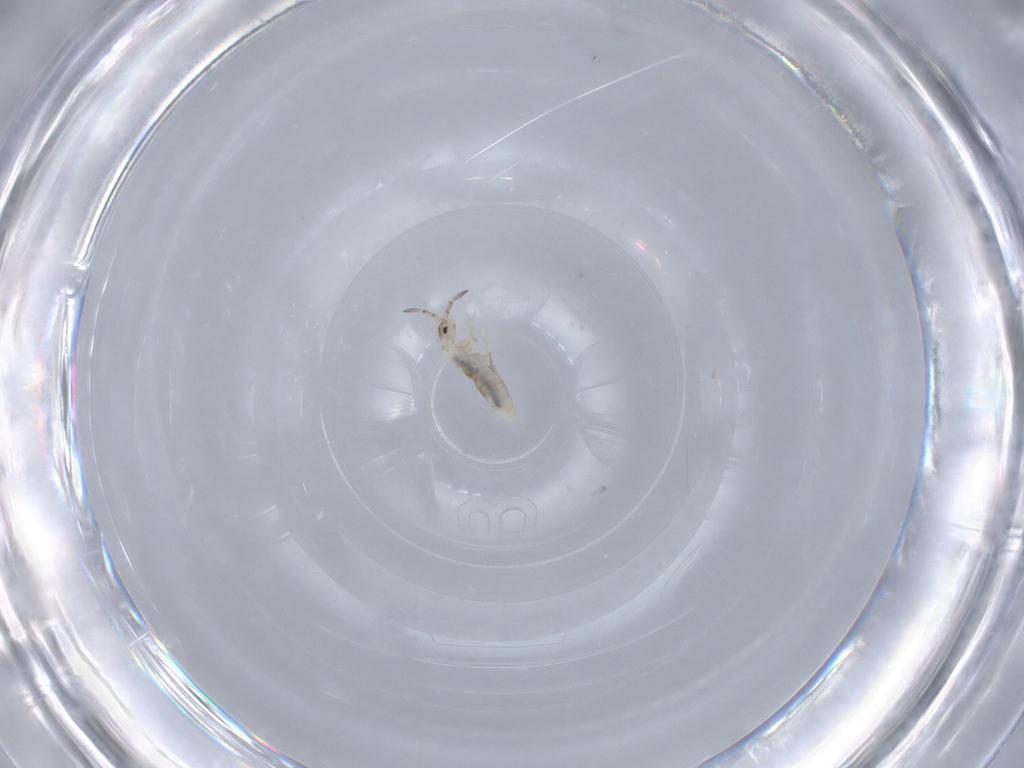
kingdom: Animalia
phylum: Arthropoda
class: Collembola
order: Entomobryomorpha
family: Entomobryidae
